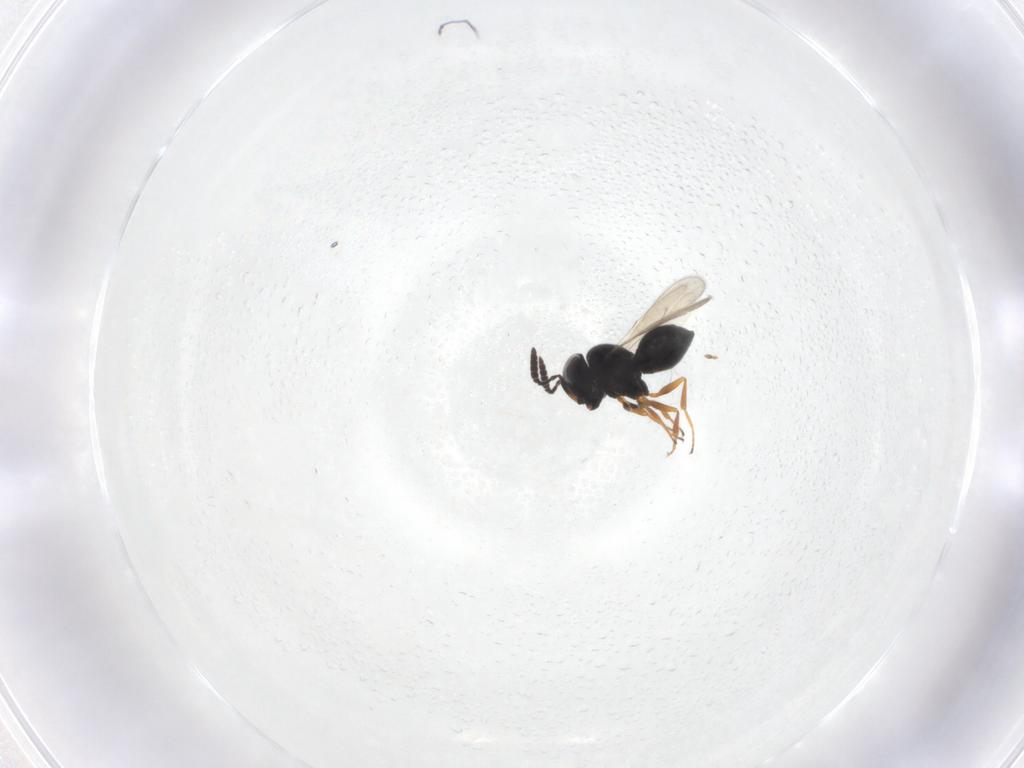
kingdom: Animalia
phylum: Arthropoda
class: Insecta
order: Hymenoptera
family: Scelionidae
